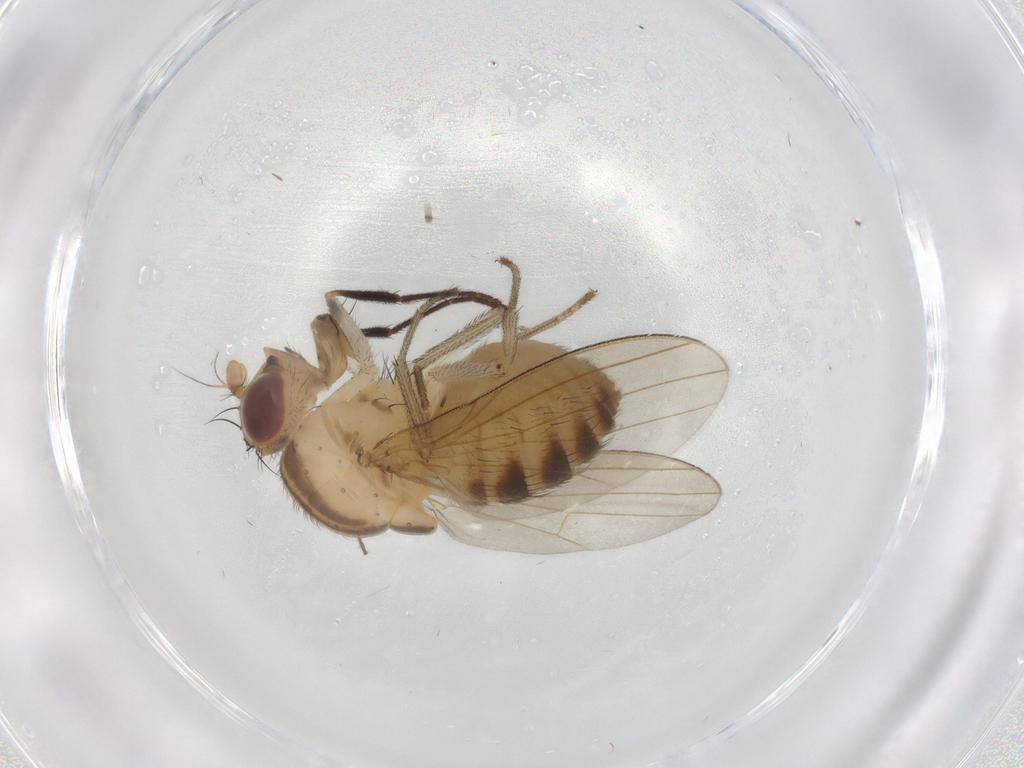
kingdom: Animalia
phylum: Arthropoda
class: Insecta
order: Diptera
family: Lauxaniidae
